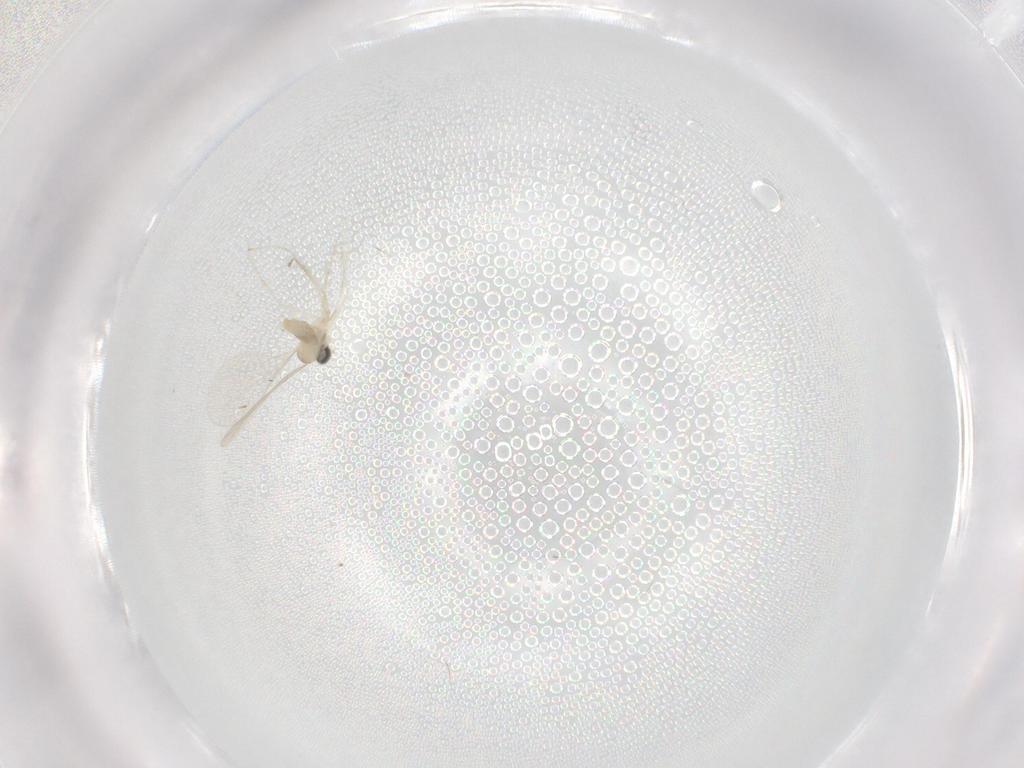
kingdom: Animalia
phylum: Arthropoda
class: Insecta
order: Diptera
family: Cecidomyiidae
